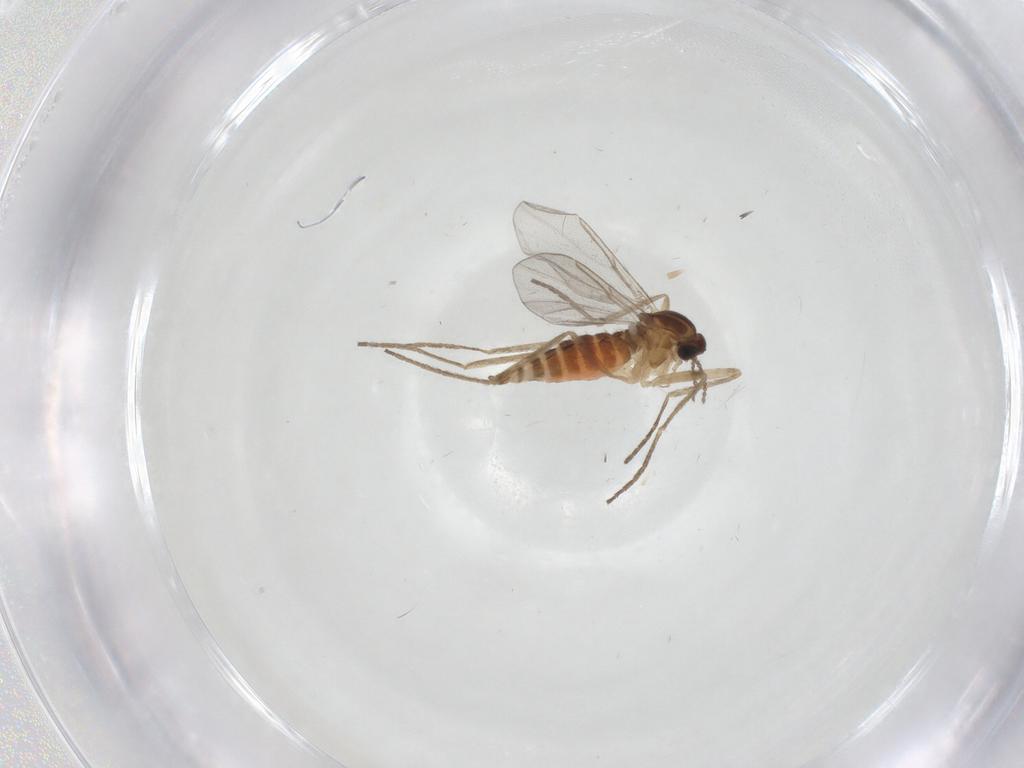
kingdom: Animalia
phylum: Arthropoda
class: Insecta
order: Diptera
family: Cecidomyiidae
